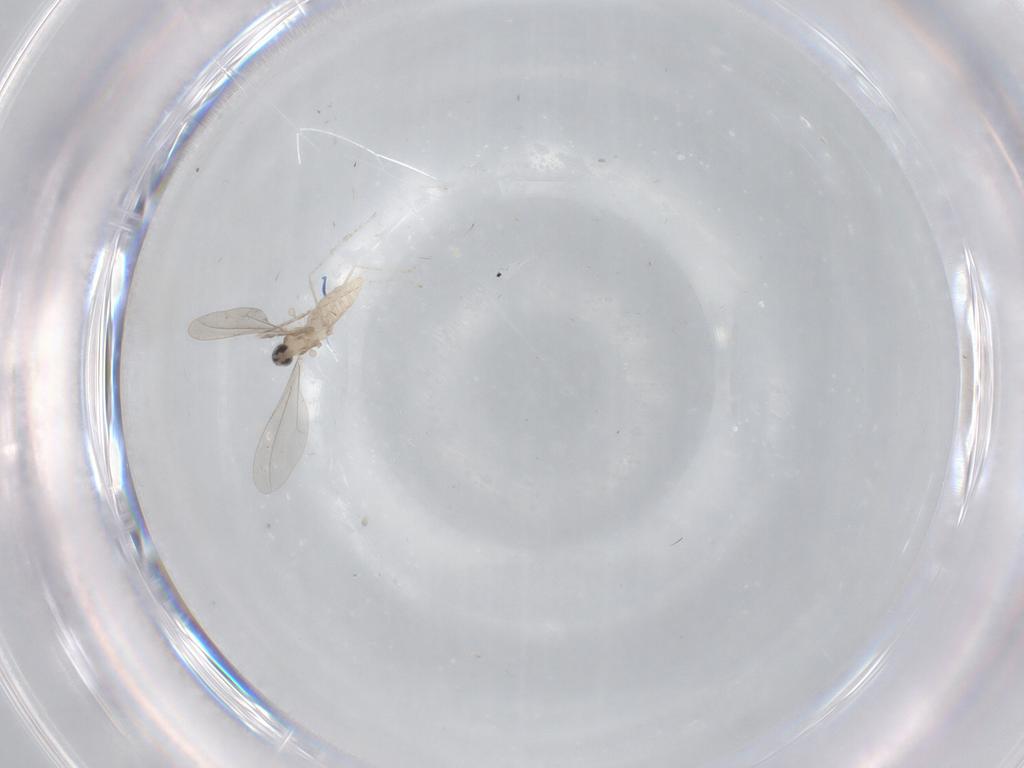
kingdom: Animalia
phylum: Arthropoda
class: Insecta
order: Diptera
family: Cecidomyiidae
